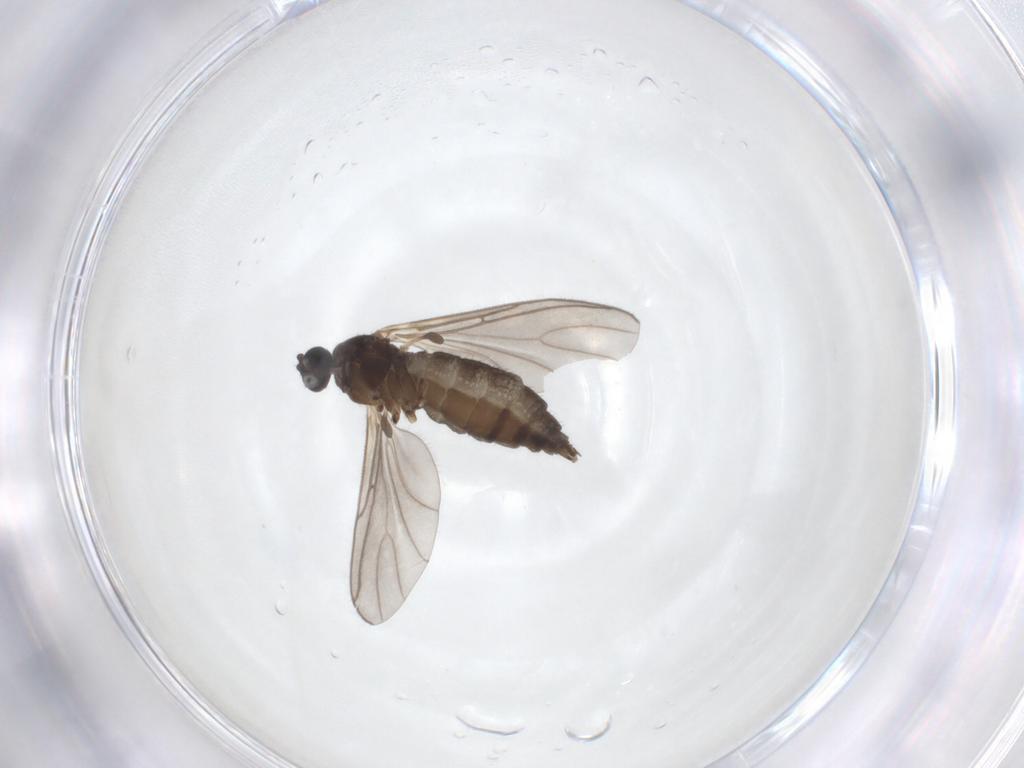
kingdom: Animalia
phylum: Arthropoda
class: Insecta
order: Diptera
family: Sciaridae
